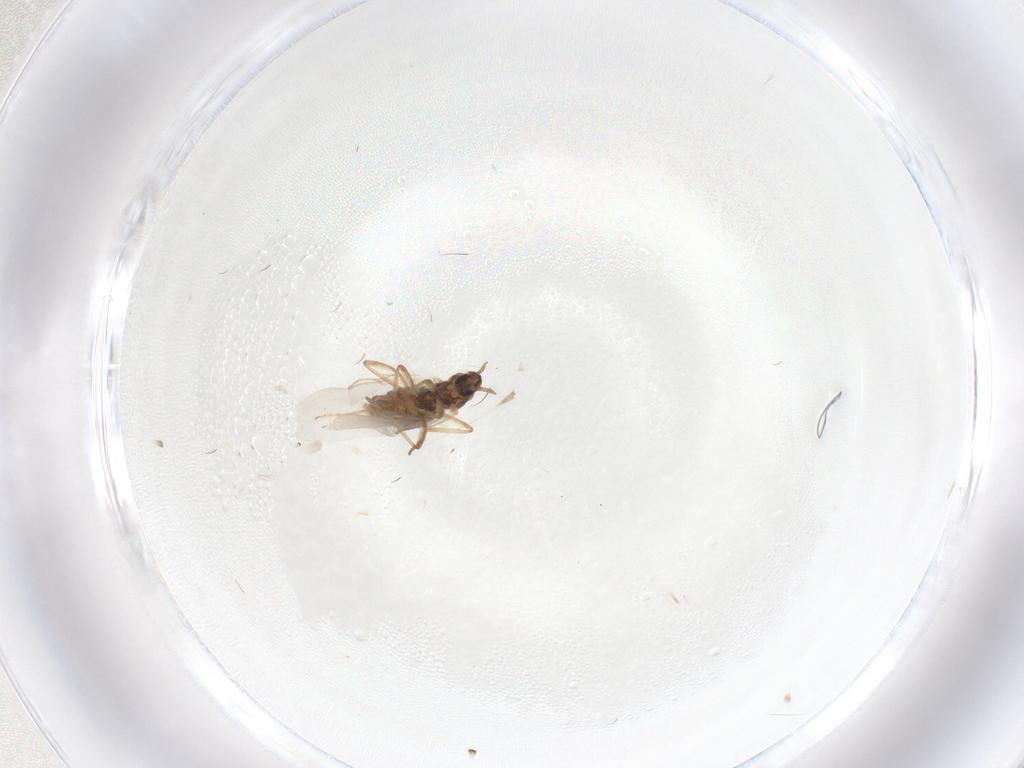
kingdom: Animalia
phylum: Arthropoda
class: Insecta
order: Diptera
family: Cecidomyiidae
